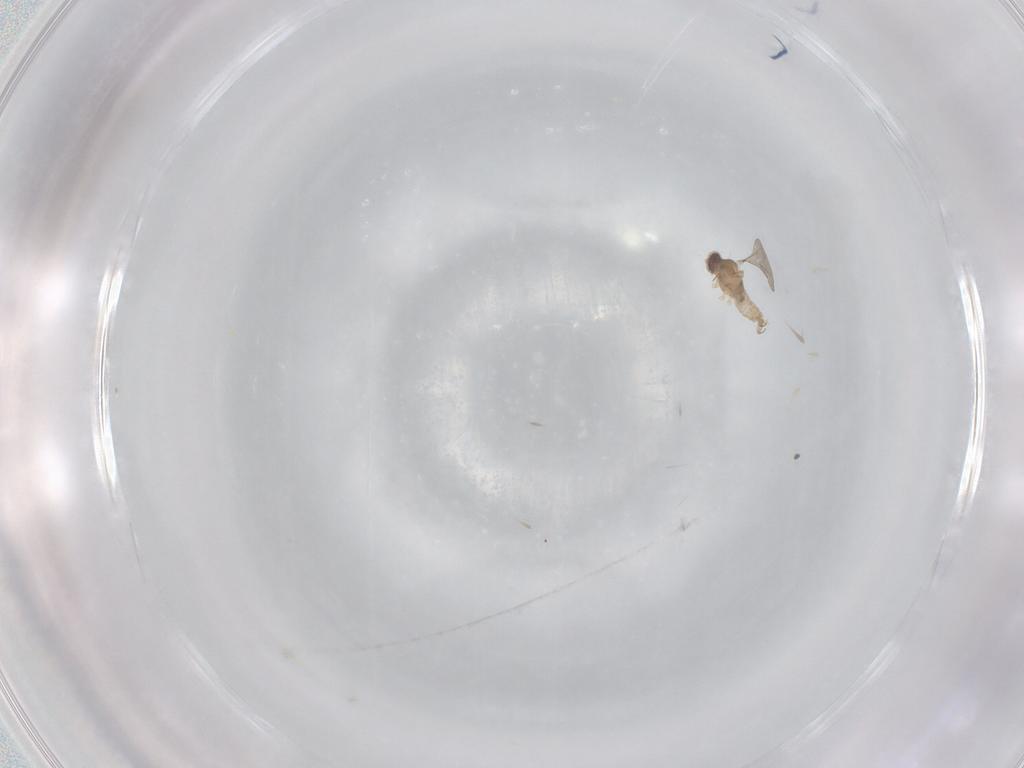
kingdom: Animalia
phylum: Arthropoda
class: Insecta
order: Diptera
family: Cecidomyiidae
